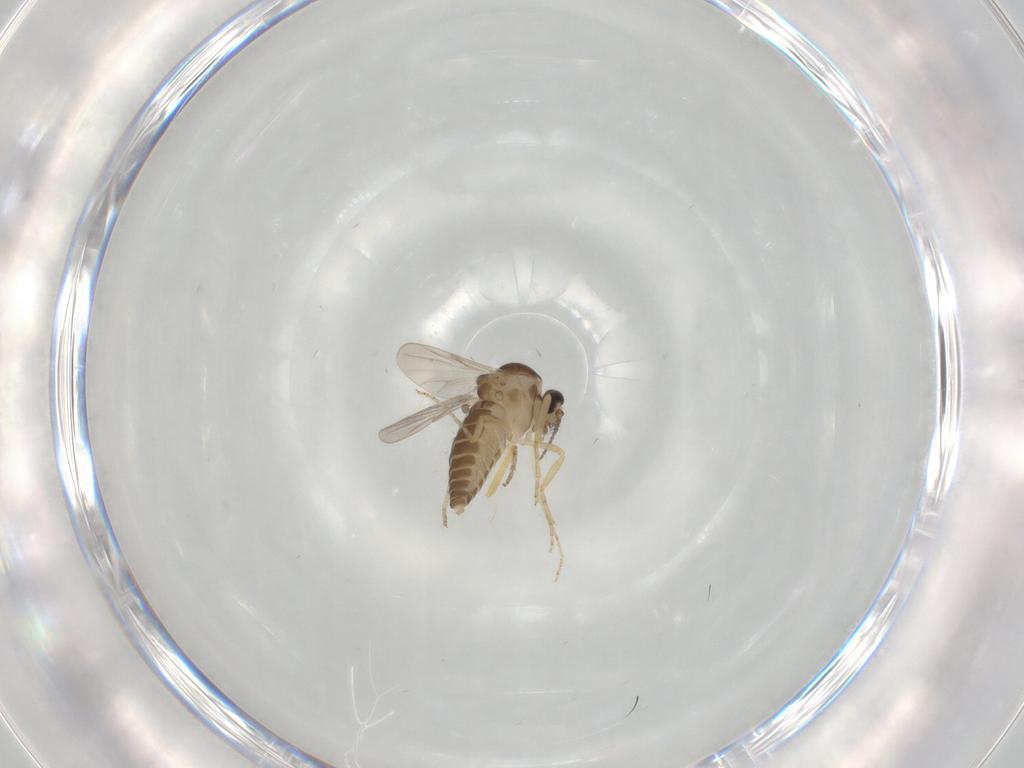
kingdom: Animalia
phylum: Arthropoda
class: Insecta
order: Diptera
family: Ceratopogonidae
